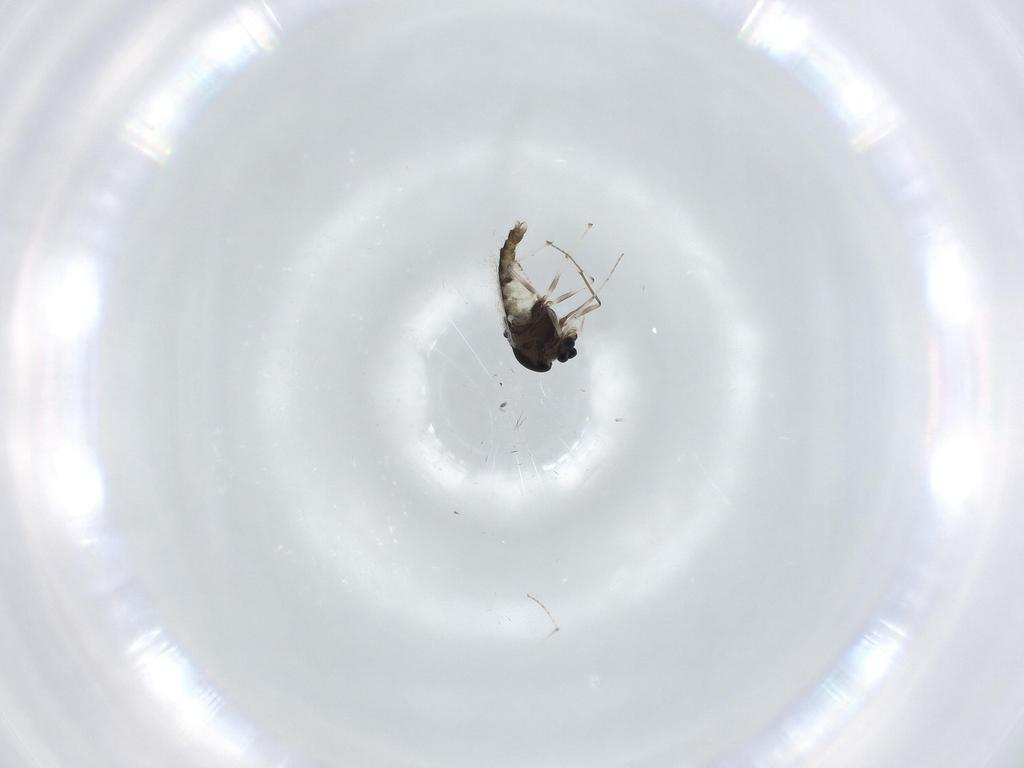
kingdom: Animalia
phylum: Arthropoda
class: Insecta
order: Diptera
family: Chironomidae
